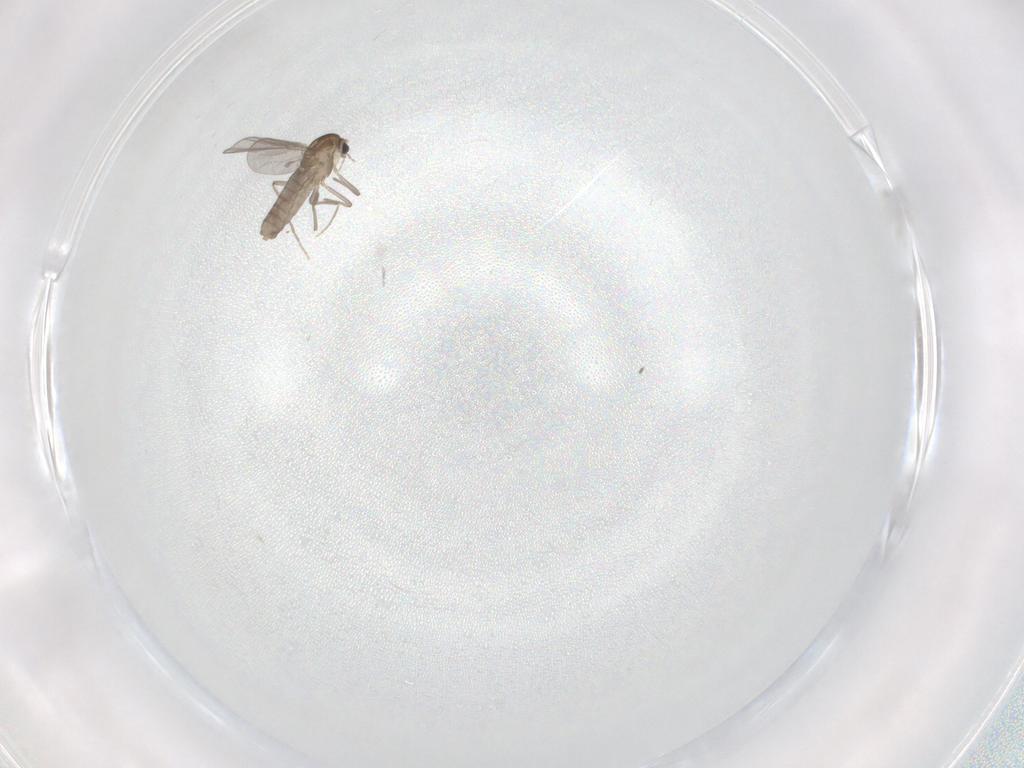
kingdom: Animalia
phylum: Arthropoda
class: Insecta
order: Diptera
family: Chironomidae
